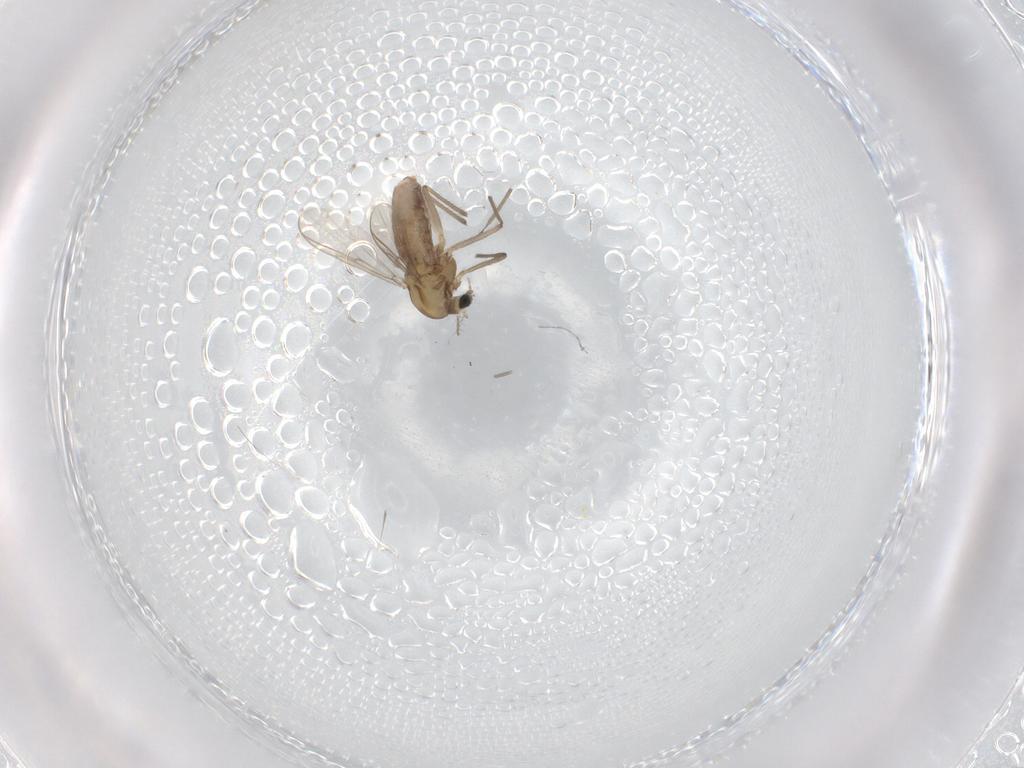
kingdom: Animalia
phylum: Arthropoda
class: Insecta
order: Diptera
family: Chironomidae
